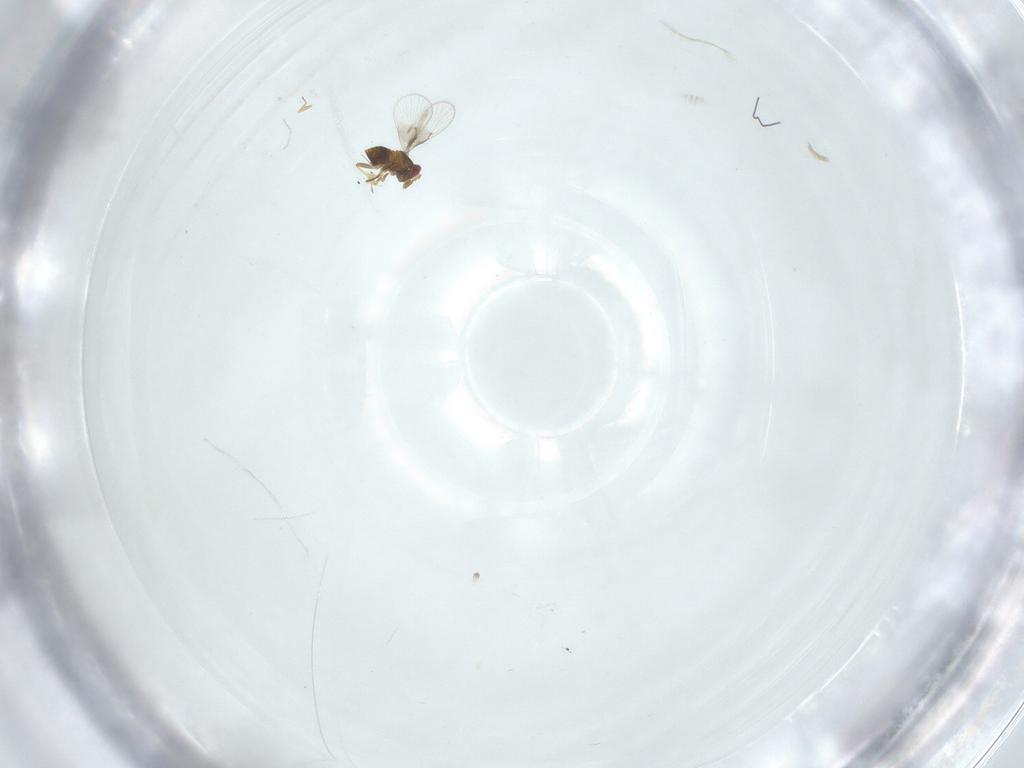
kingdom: Animalia
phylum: Arthropoda
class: Insecta
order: Hymenoptera
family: Trichogrammatidae
